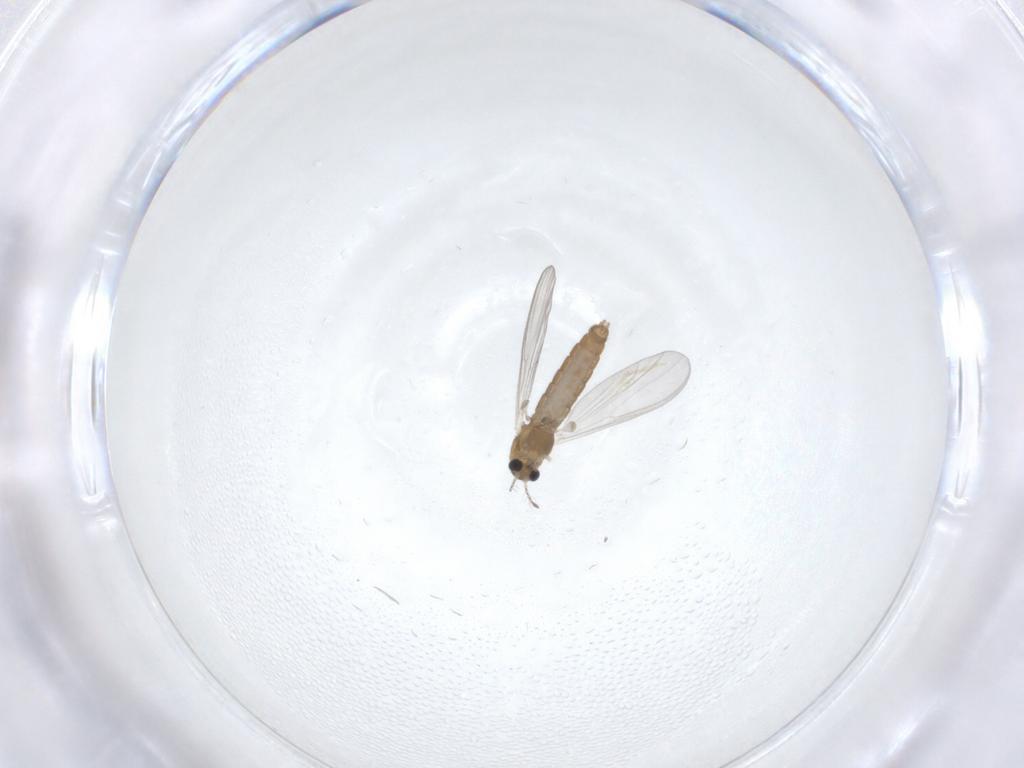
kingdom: Animalia
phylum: Arthropoda
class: Insecta
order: Diptera
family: Chironomidae
